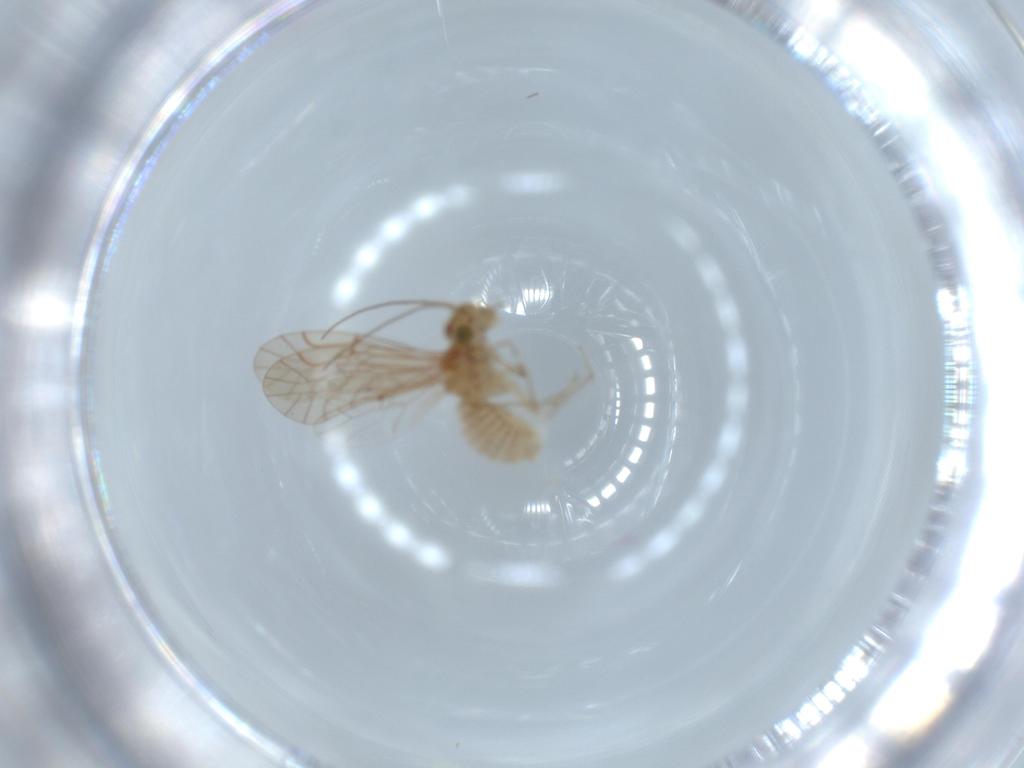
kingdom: Animalia
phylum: Arthropoda
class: Insecta
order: Psocodea
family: Lachesillidae
